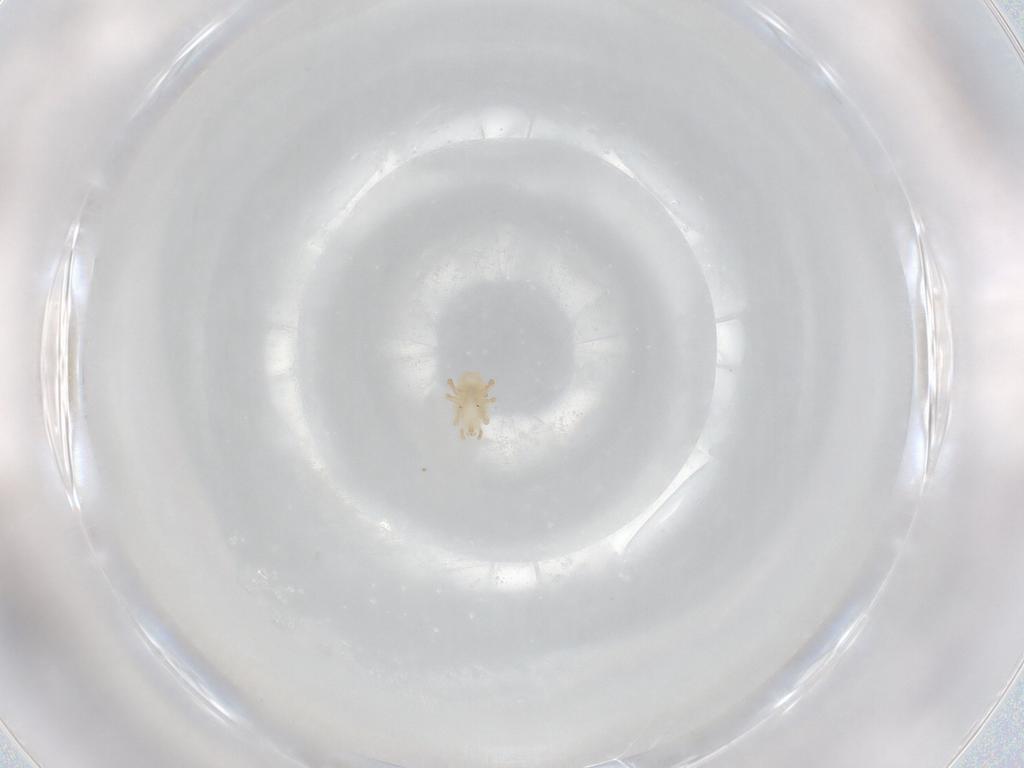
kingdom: Animalia
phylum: Arthropoda
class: Arachnida
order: Mesostigmata
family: Halolaelapidae
